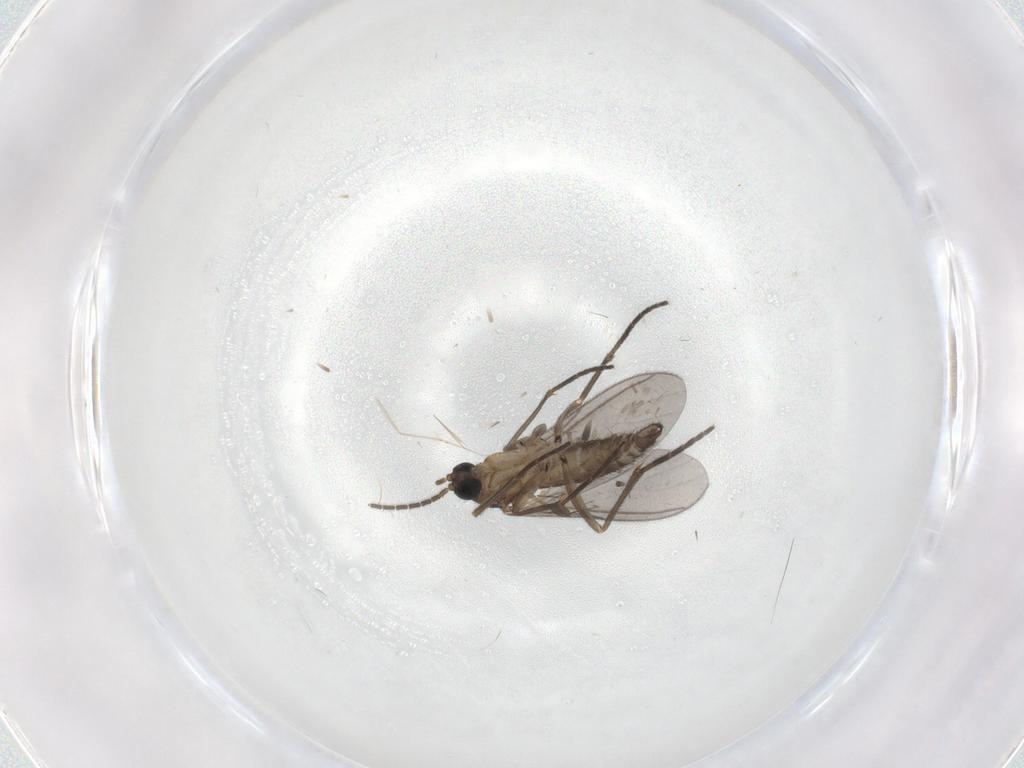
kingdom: Animalia
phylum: Arthropoda
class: Insecta
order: Diptera
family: Sciaridae
